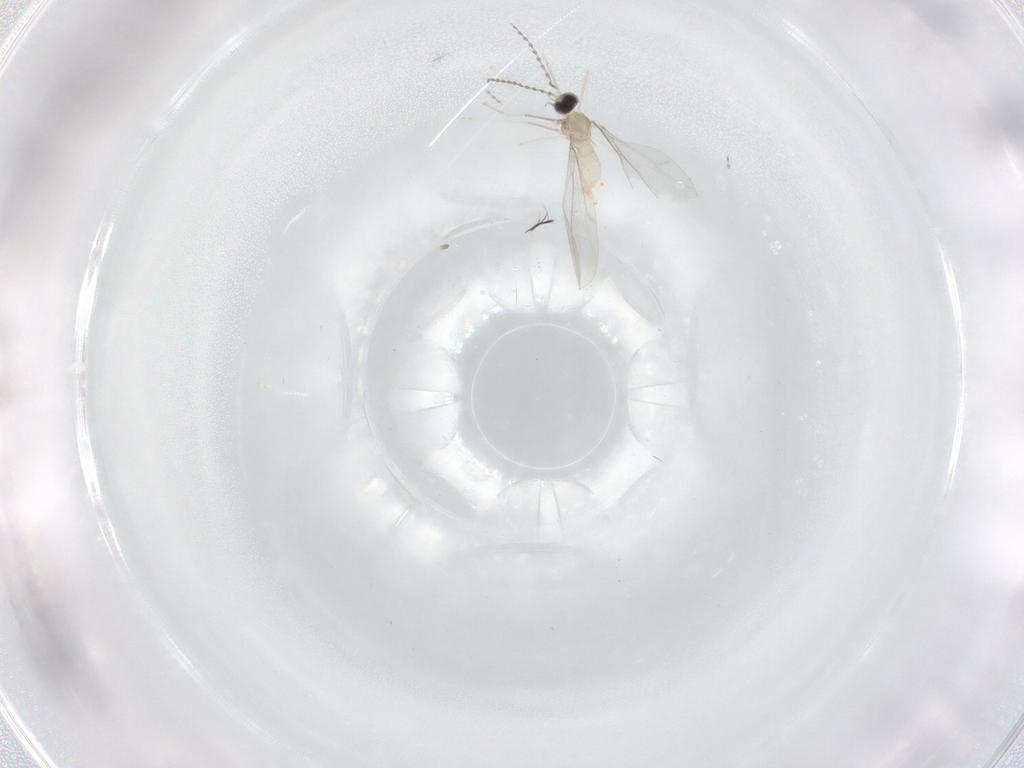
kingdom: Animalia
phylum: Arthropoda
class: Insecta
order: Diptera
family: Cecidomyiidae
